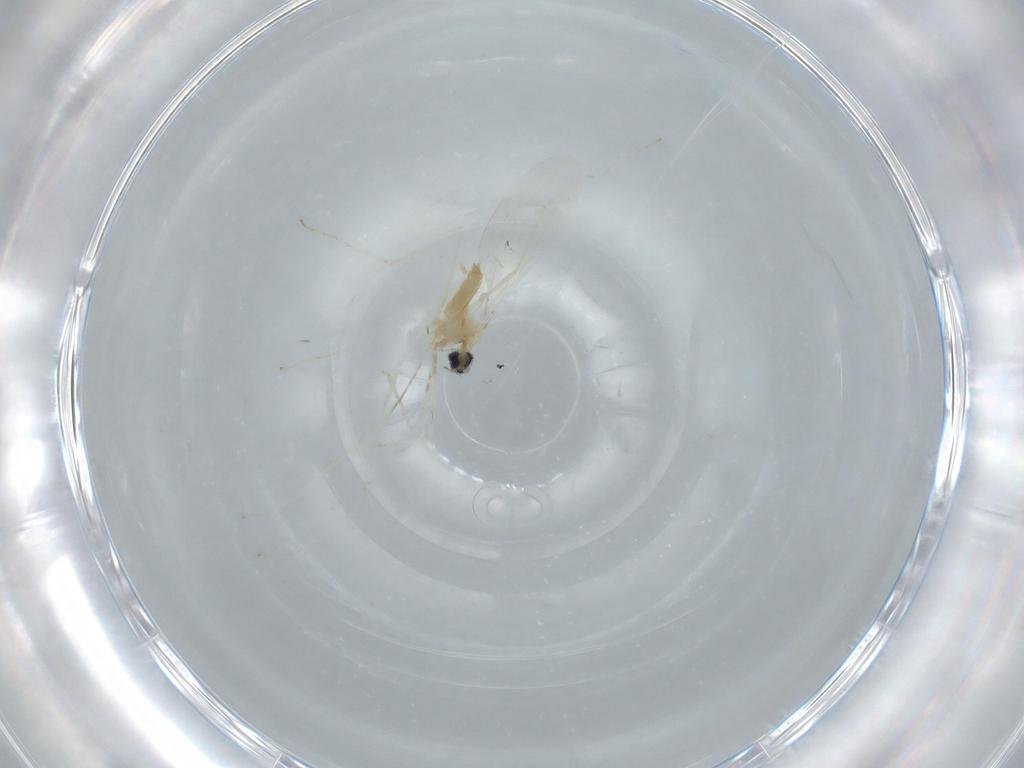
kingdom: Animalia
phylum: Arthropoda
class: Insecta
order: Diptera
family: Cecidomyiidae
